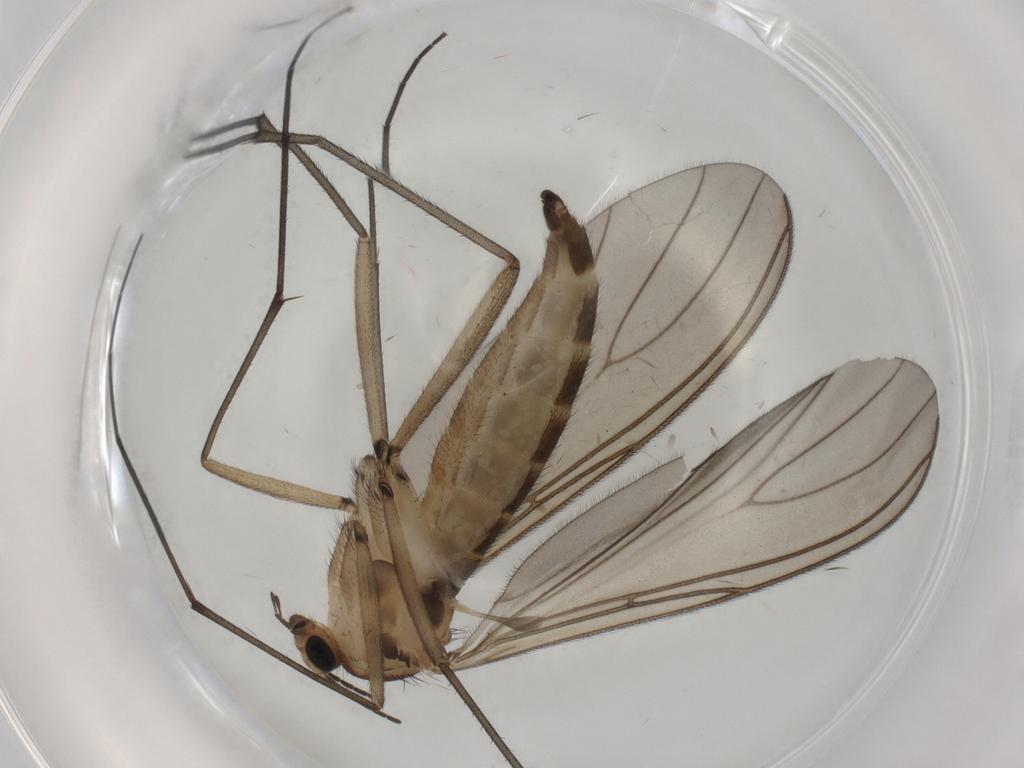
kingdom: Animalia
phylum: Arthropoda
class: Insecta
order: Diptera
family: Sciaridae
